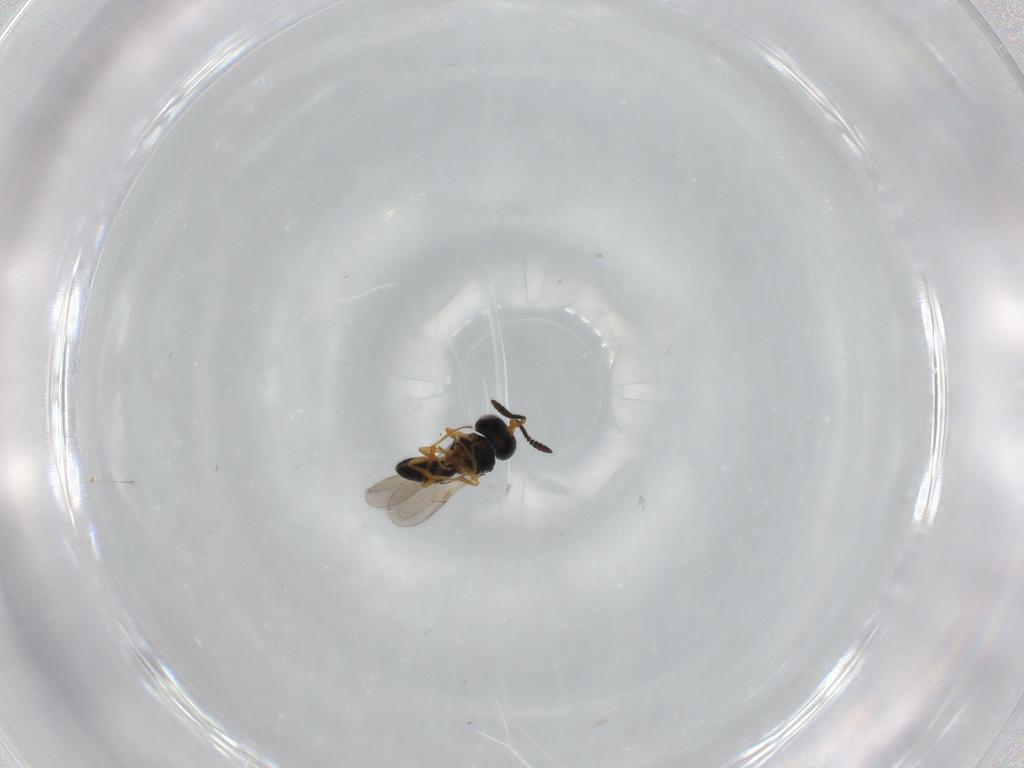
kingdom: Animalia
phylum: Arthropoda
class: Insecta
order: Hymenoptera
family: Scelionidae
